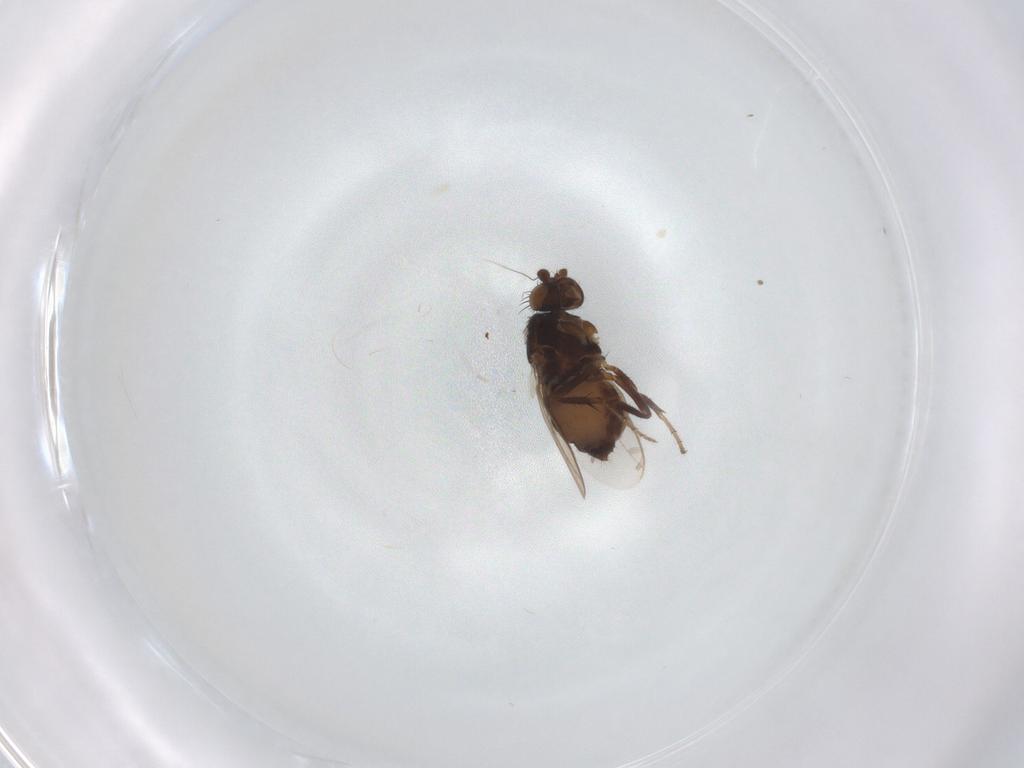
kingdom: Animalia
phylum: Arthropoda
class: Insecta
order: Diptera
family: Sphaeroceridae
